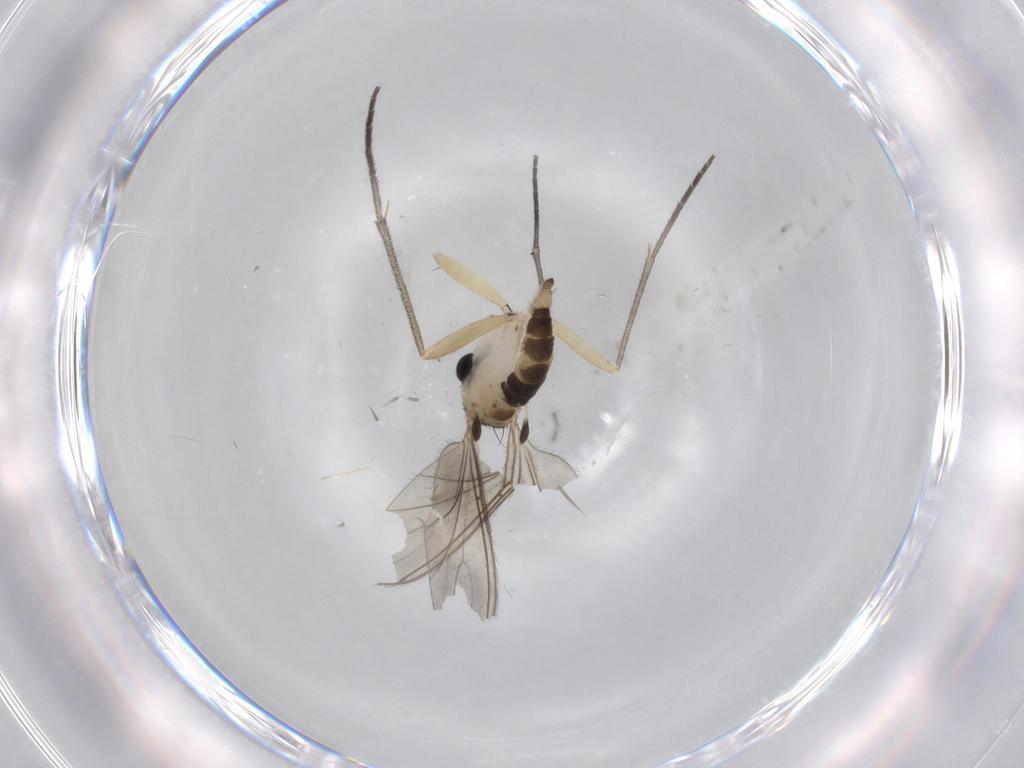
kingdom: Animalia
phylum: Arthropoda
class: Insecta
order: Diptera
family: Sciaridae
